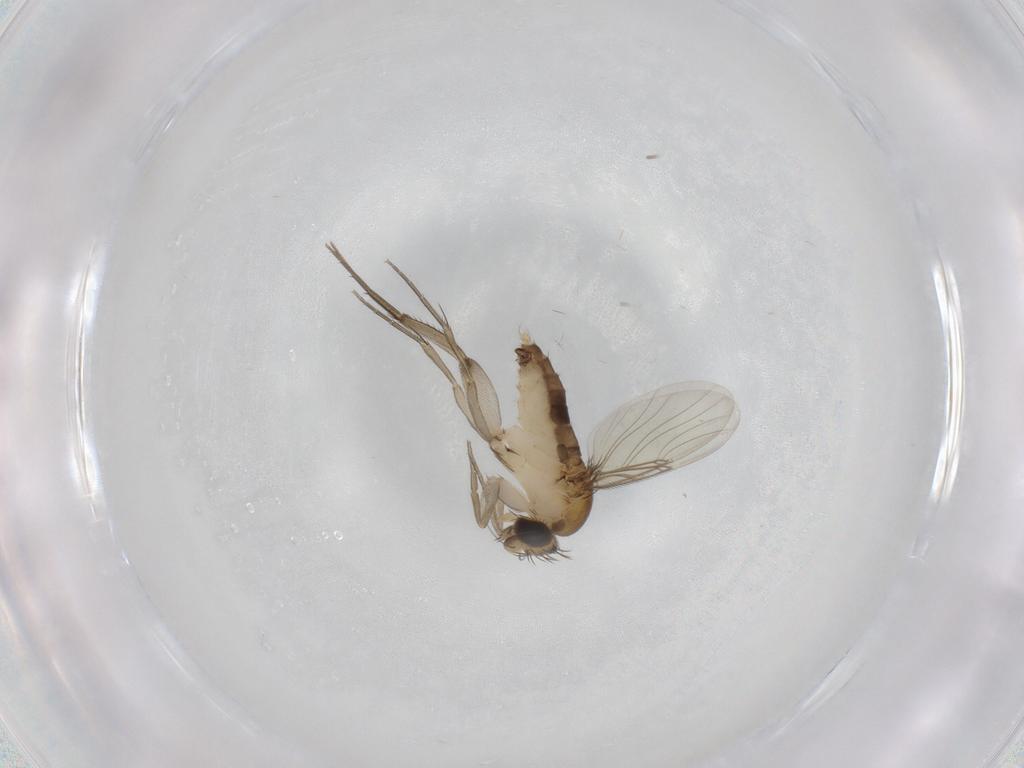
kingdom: Animalia
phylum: Arthropoda
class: Insecta
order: Diptera
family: Phoridae
